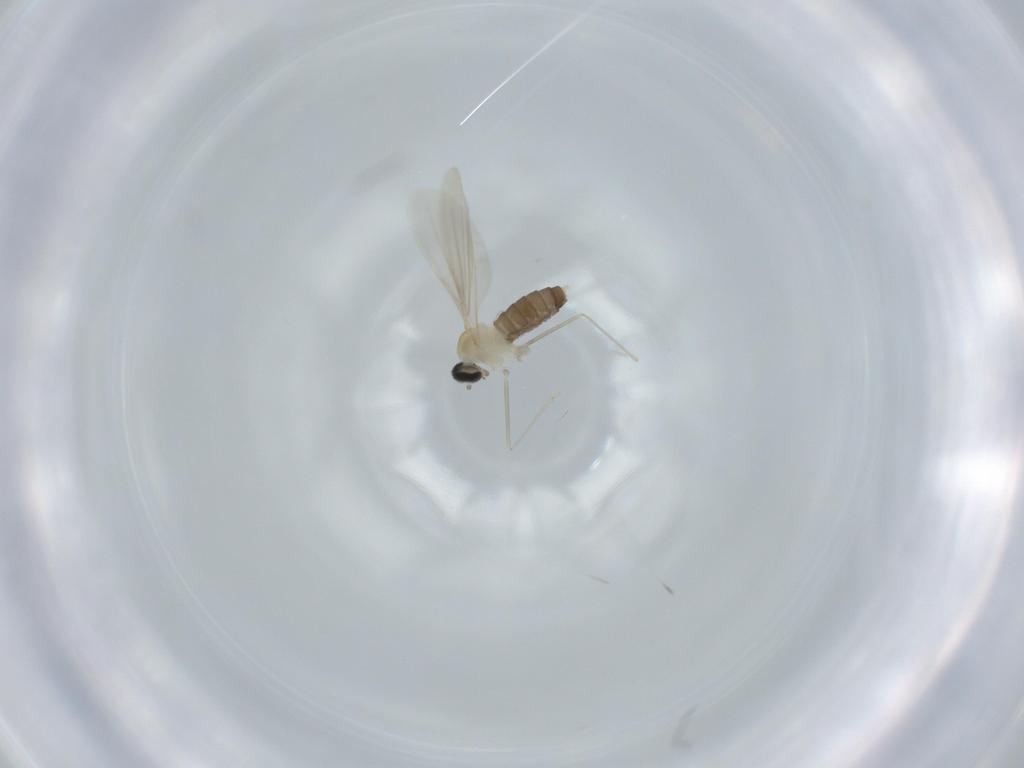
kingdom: Animalia
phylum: Arthropoda
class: Insecta
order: Diptera
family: Cecidomyiidae
